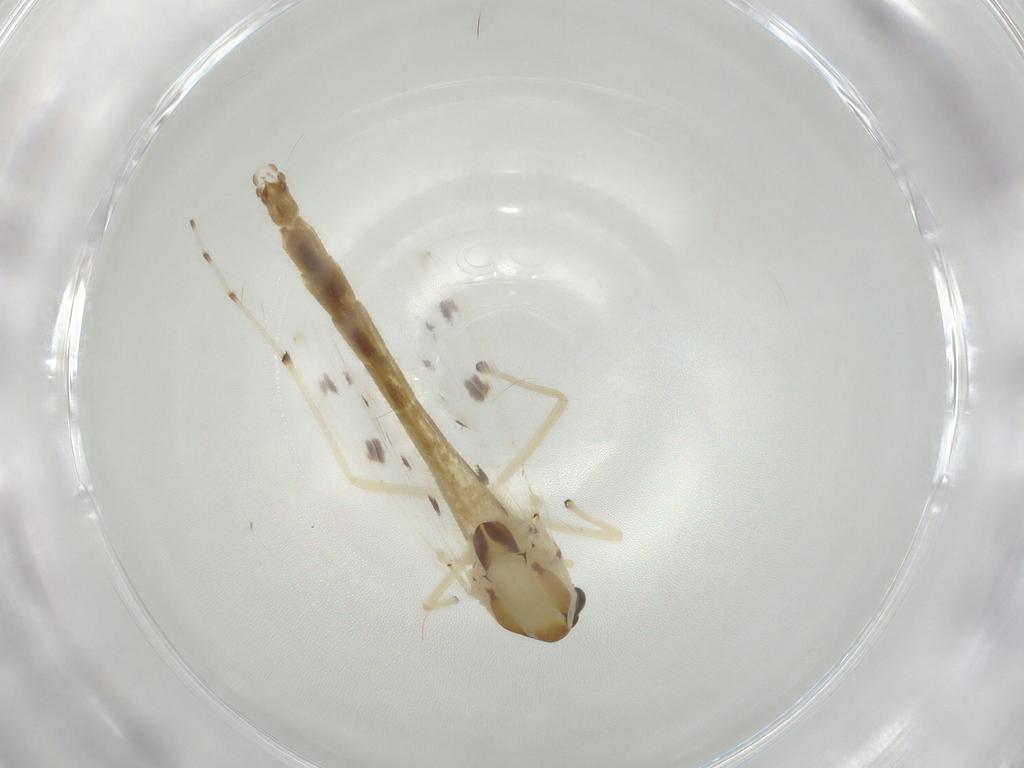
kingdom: Animalia
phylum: Arthropoda
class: Insecta
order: Diptera
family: Chironomidae
